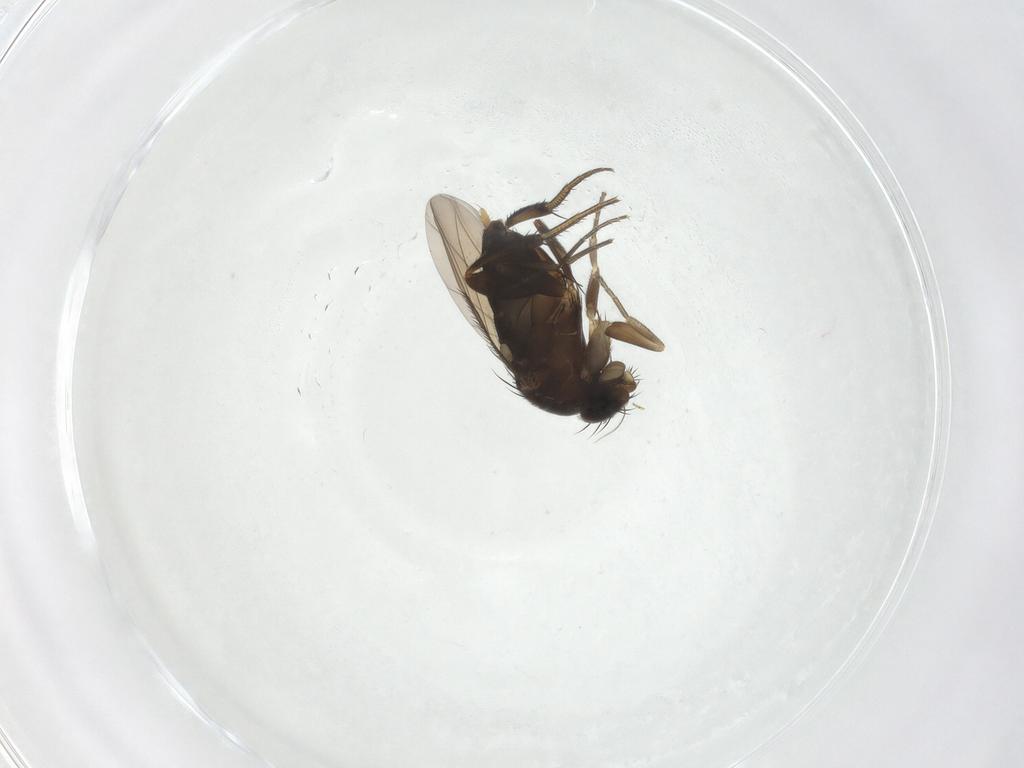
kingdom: Animalia
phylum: Arthropoda
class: Insecta
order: Diptera
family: Phoridae
